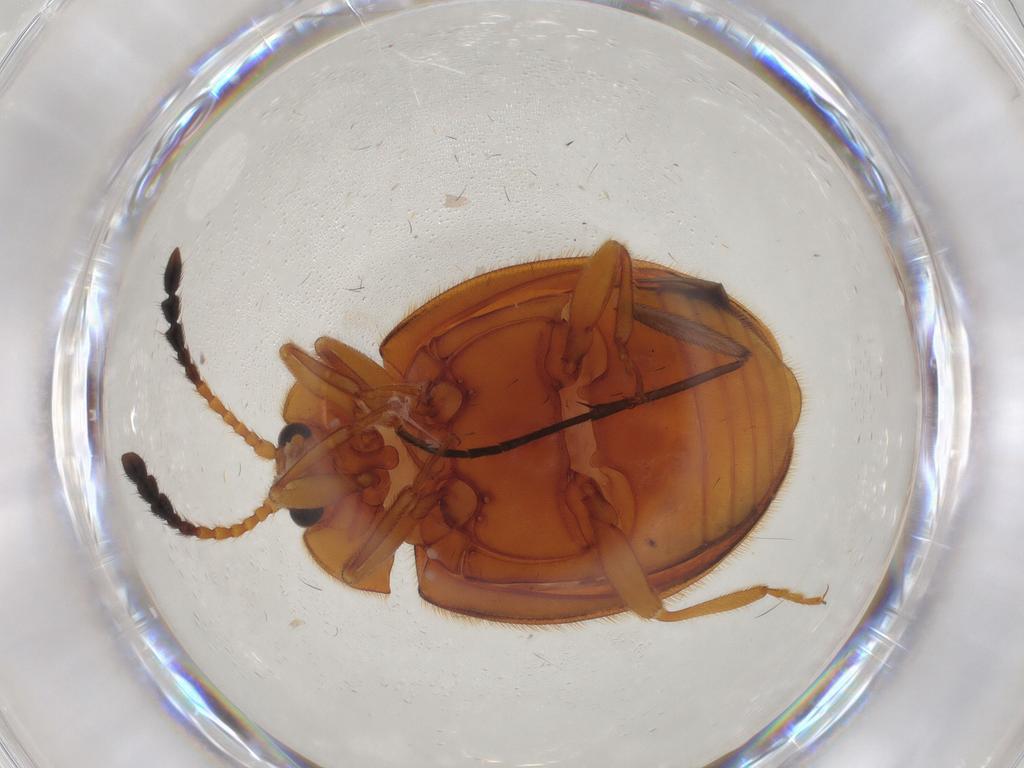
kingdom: Animalia
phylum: Arthropoda
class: Insecta
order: Coleoptera
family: Endomychidae
